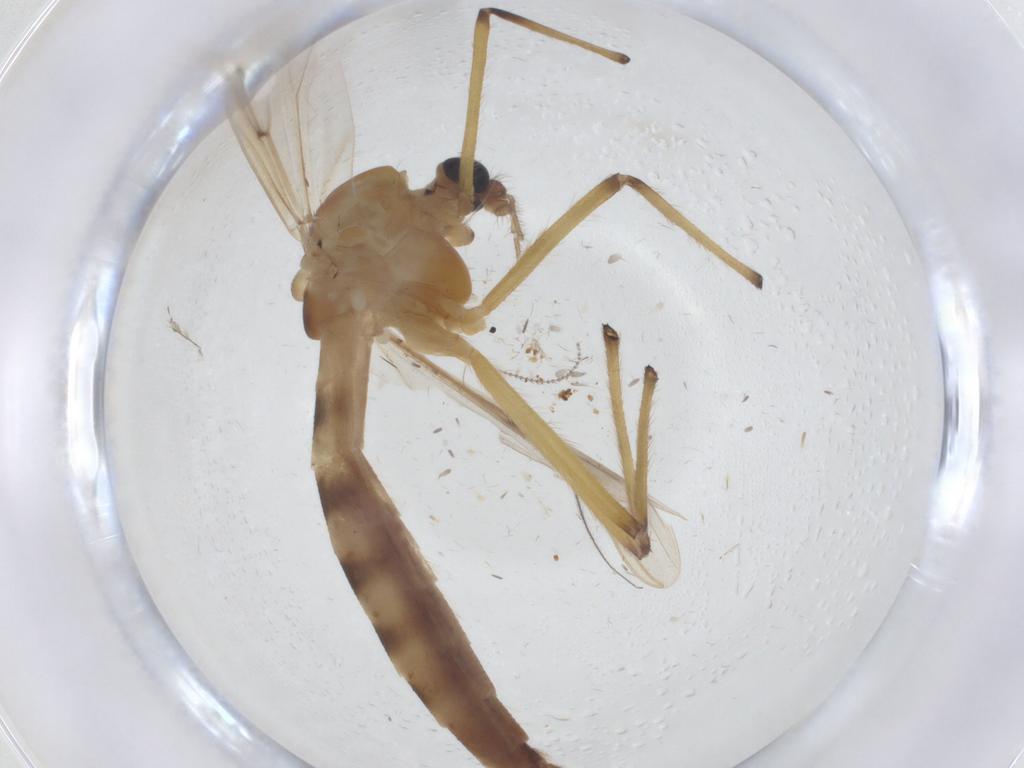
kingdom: Animalia
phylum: Arthropoda
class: Insecta
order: Diptera
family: Chironomidae
